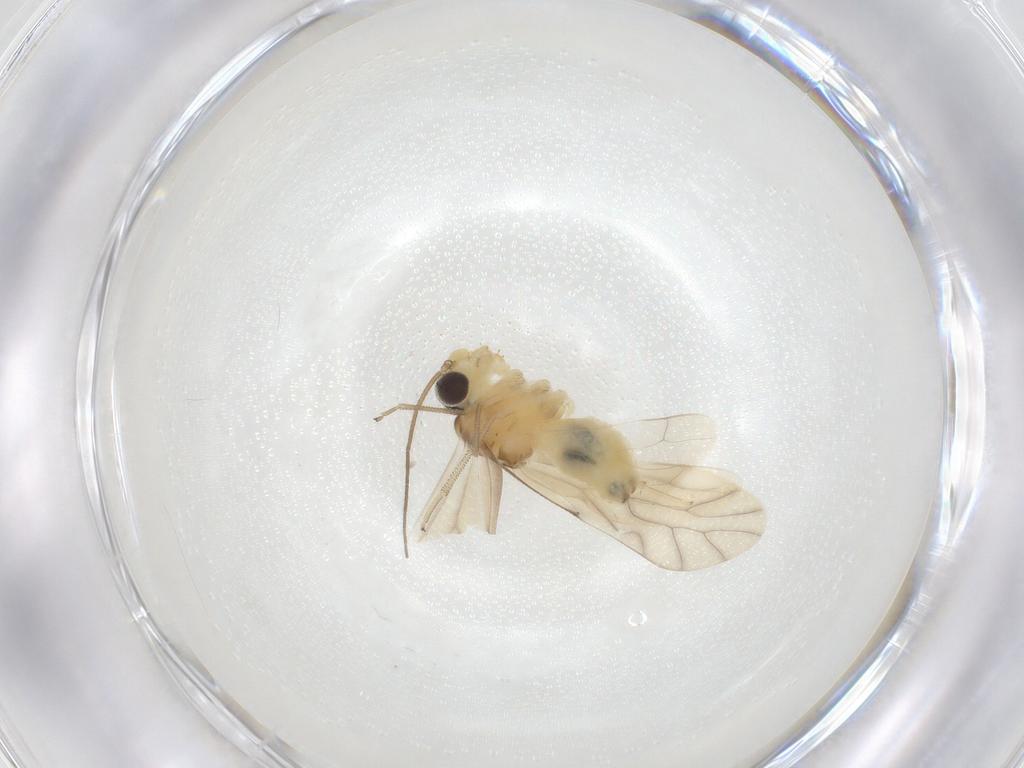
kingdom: Animalia
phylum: Arthropoda
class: Insecta
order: Psocodea
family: Caeciliusidae
